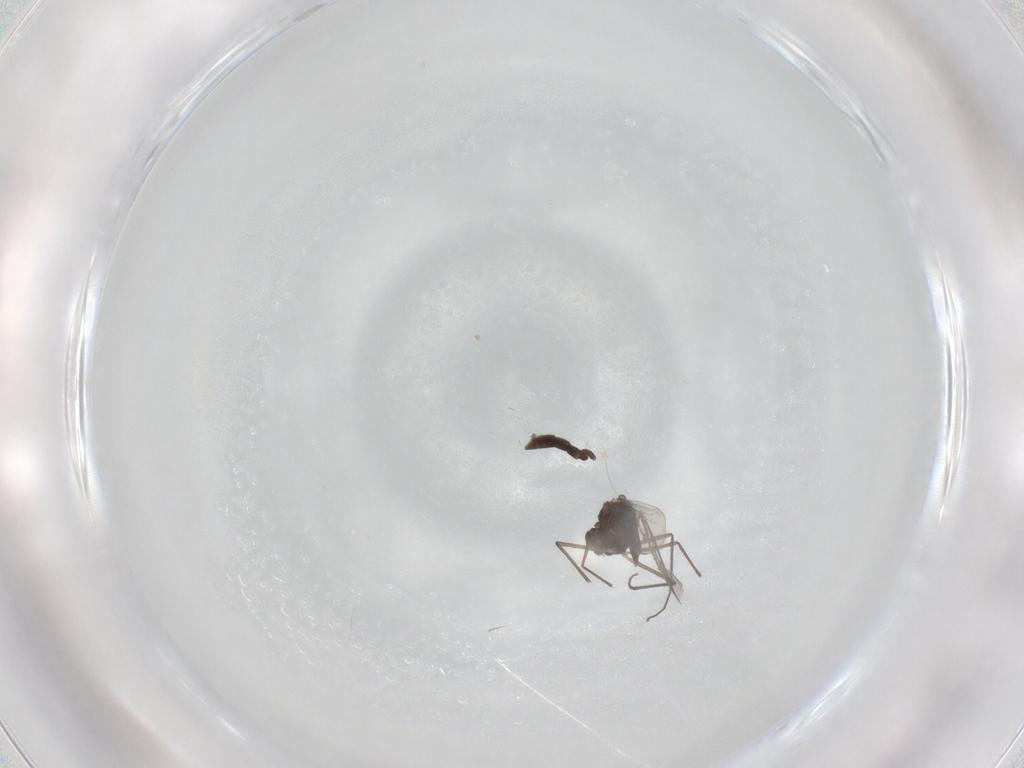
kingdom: Animalia
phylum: Arthropoda
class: Insecta
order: Diptera
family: Chironomidae
